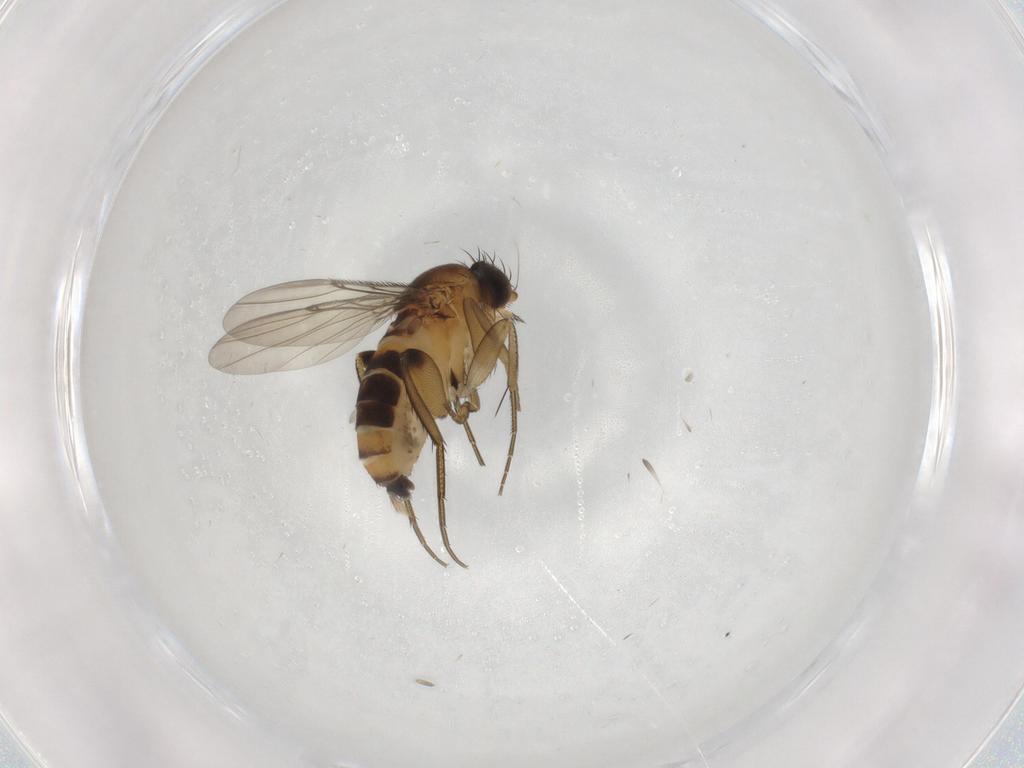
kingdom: Animalia
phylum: Arthropoda
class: Insecta
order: Diptera
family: Phoridae
